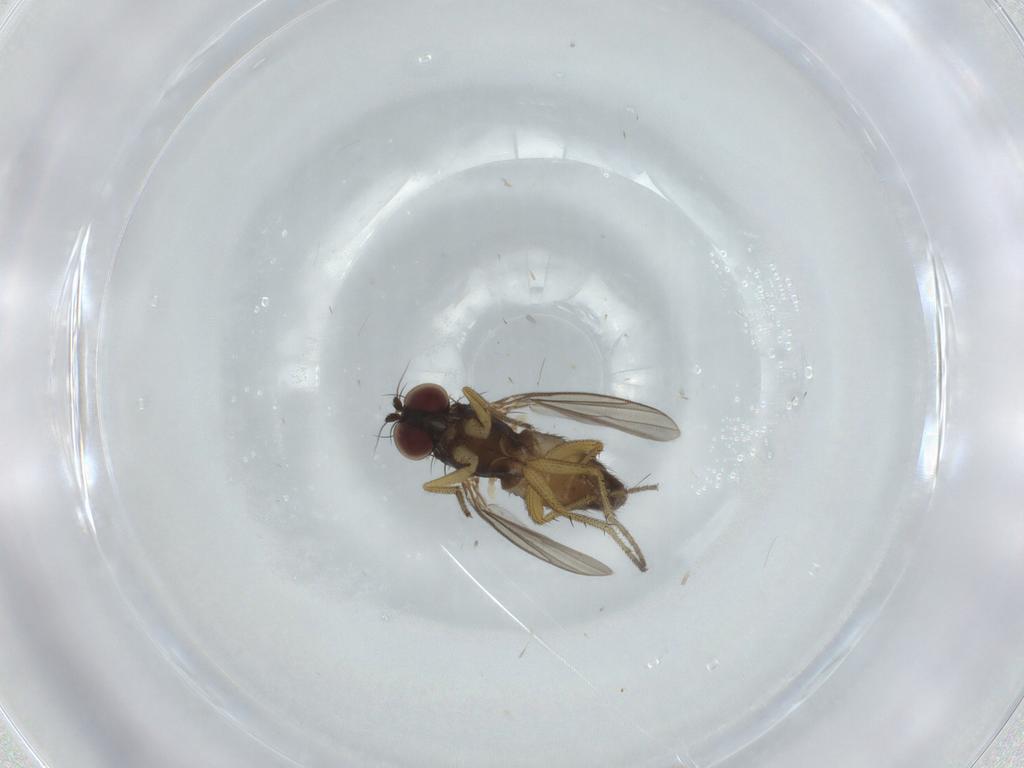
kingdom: Animalia
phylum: Arthropoda
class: Insecta
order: Diptera
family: Dolichopodidae
